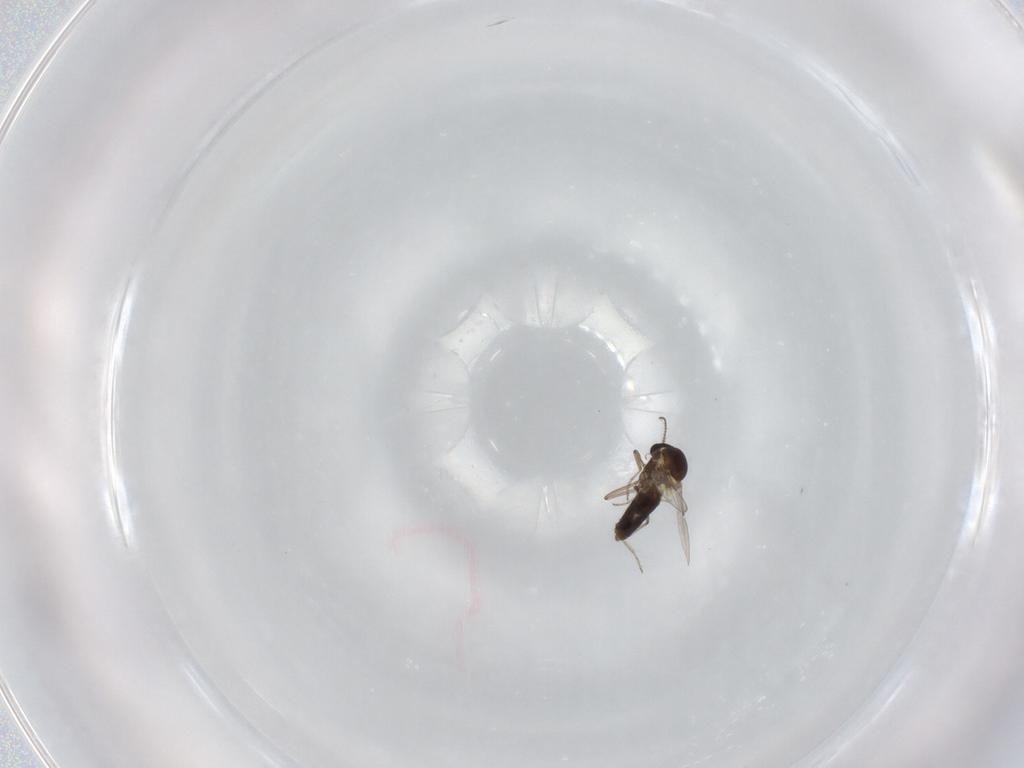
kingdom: Animalia
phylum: Arthropoda
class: Insecta
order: Diptera
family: Ceratopogonidae
